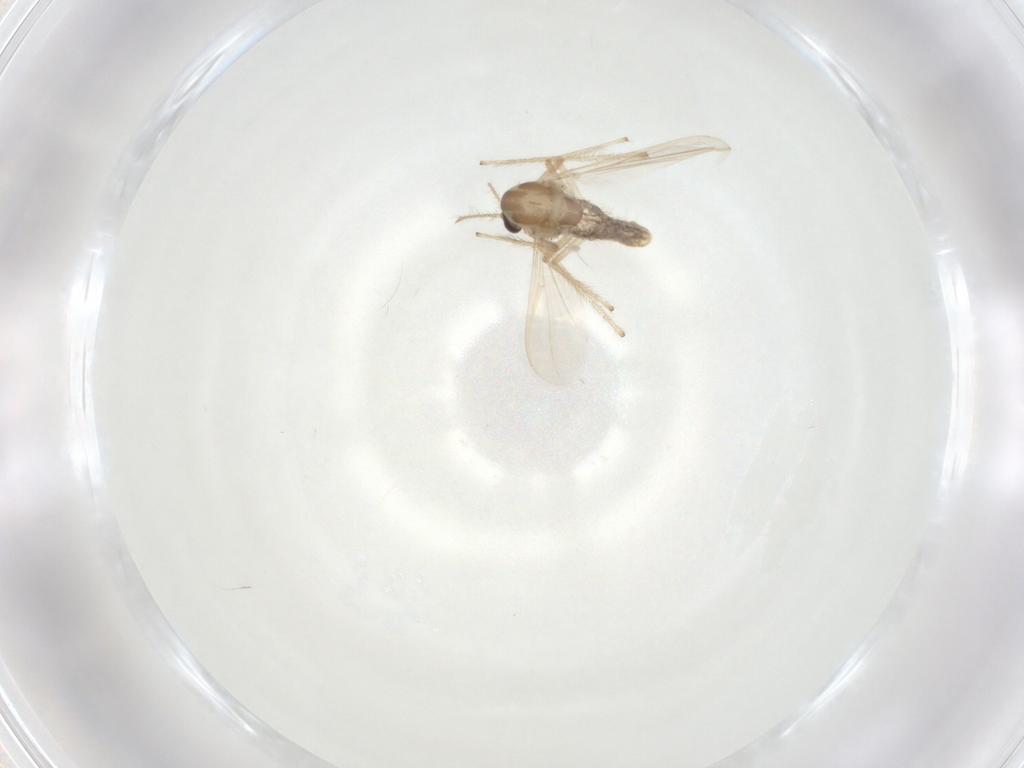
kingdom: Animalia
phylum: Arthropoda
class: Insecta
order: Diptera
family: Chironomidae
